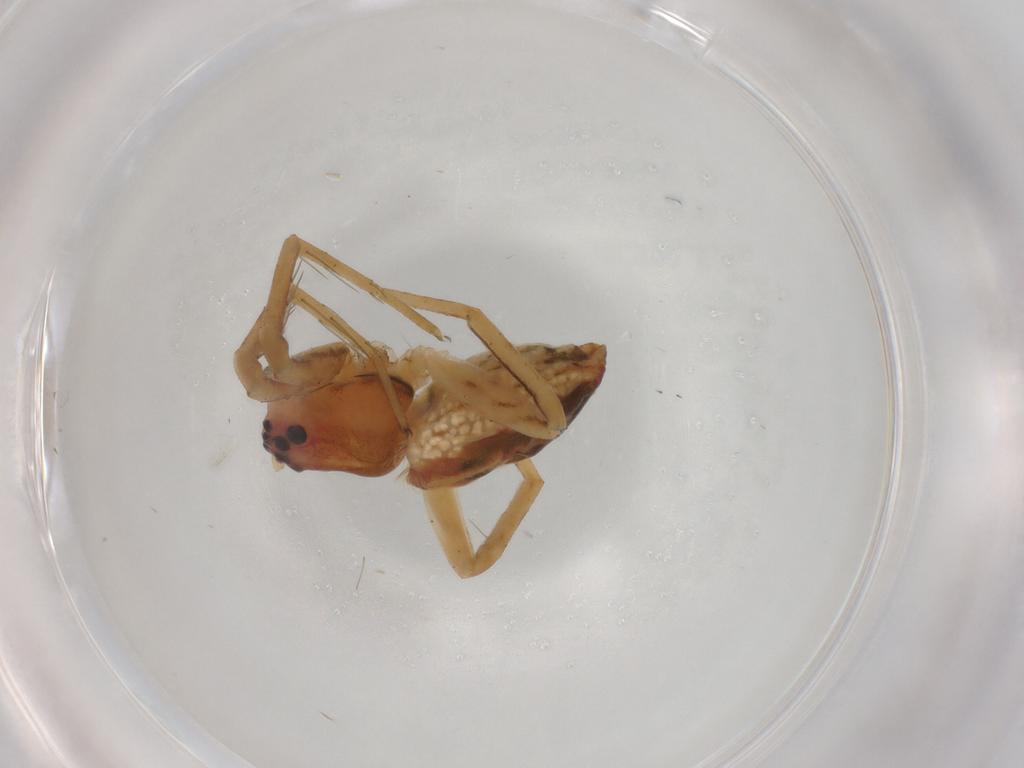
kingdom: Animalia
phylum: Arthropoda
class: Arachnida
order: Araneae
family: Pisauridae
